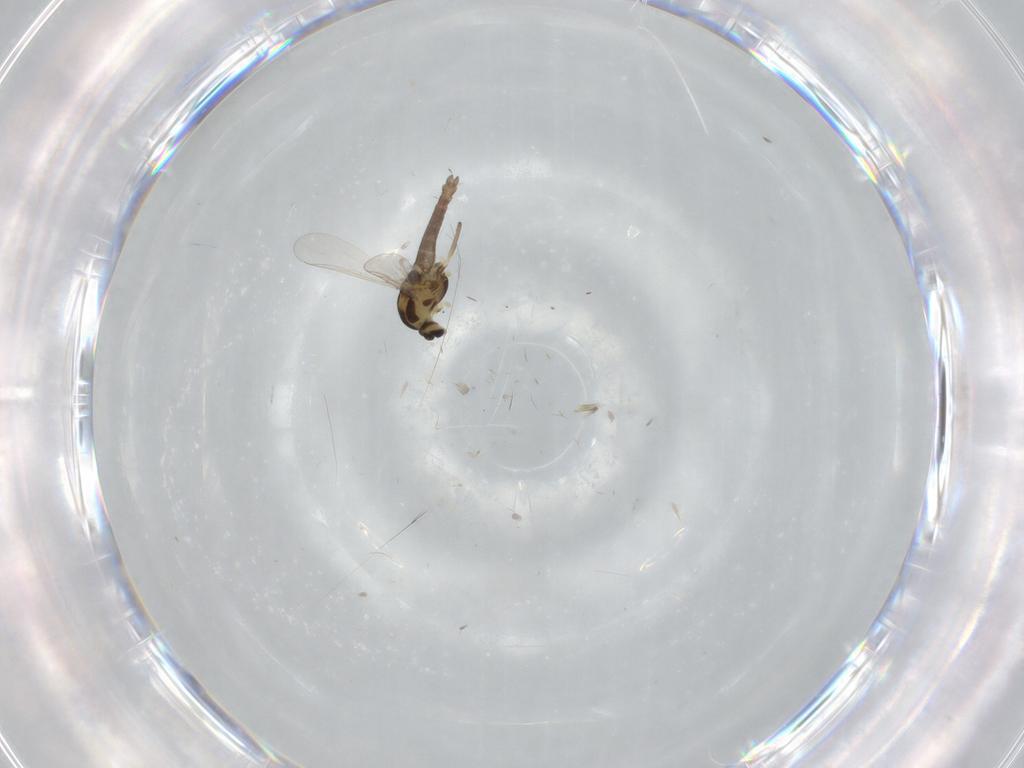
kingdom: Animalia
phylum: Arthropoda
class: Insecta
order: Diptera
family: Chironomidae
